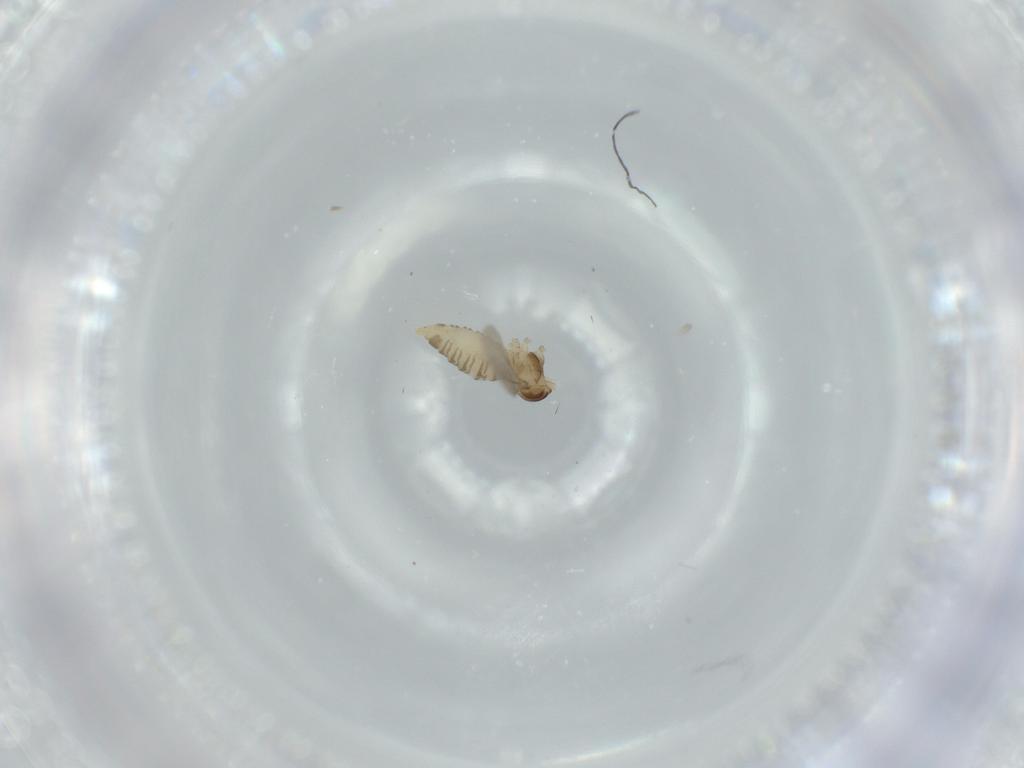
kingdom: Animalia
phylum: Arthropoda
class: Insecta
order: Diptera
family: Cecidomyiidae
